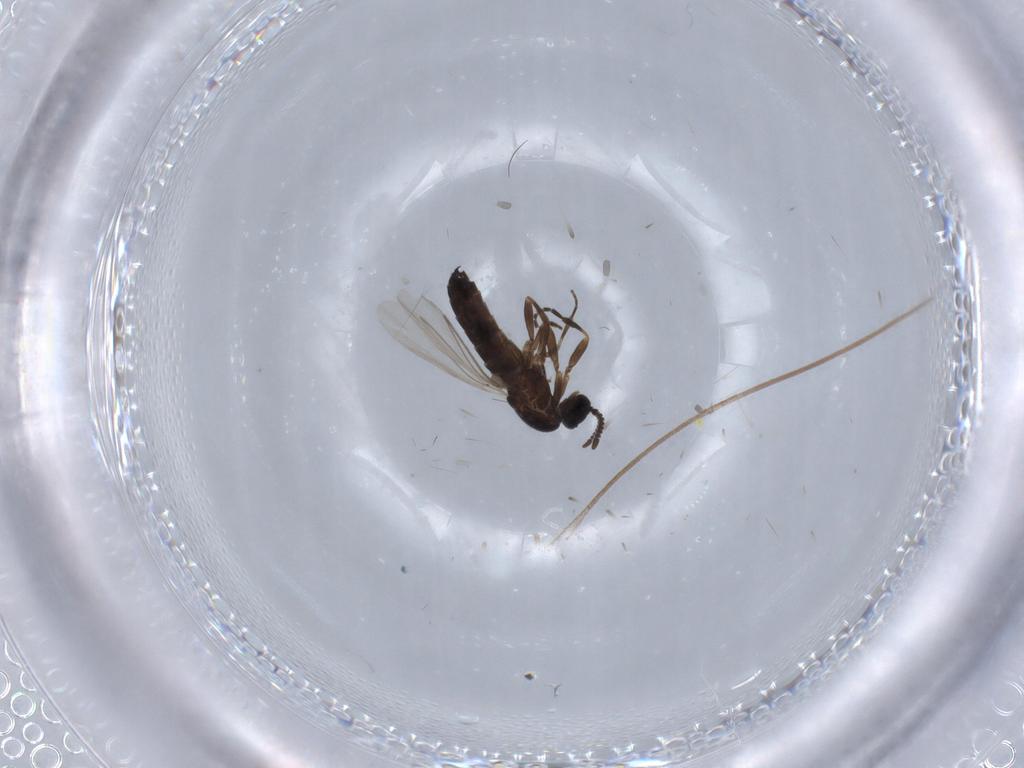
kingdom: Animalia
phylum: Arthropoda
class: Insecta
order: Diptera
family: Scatopsidae
